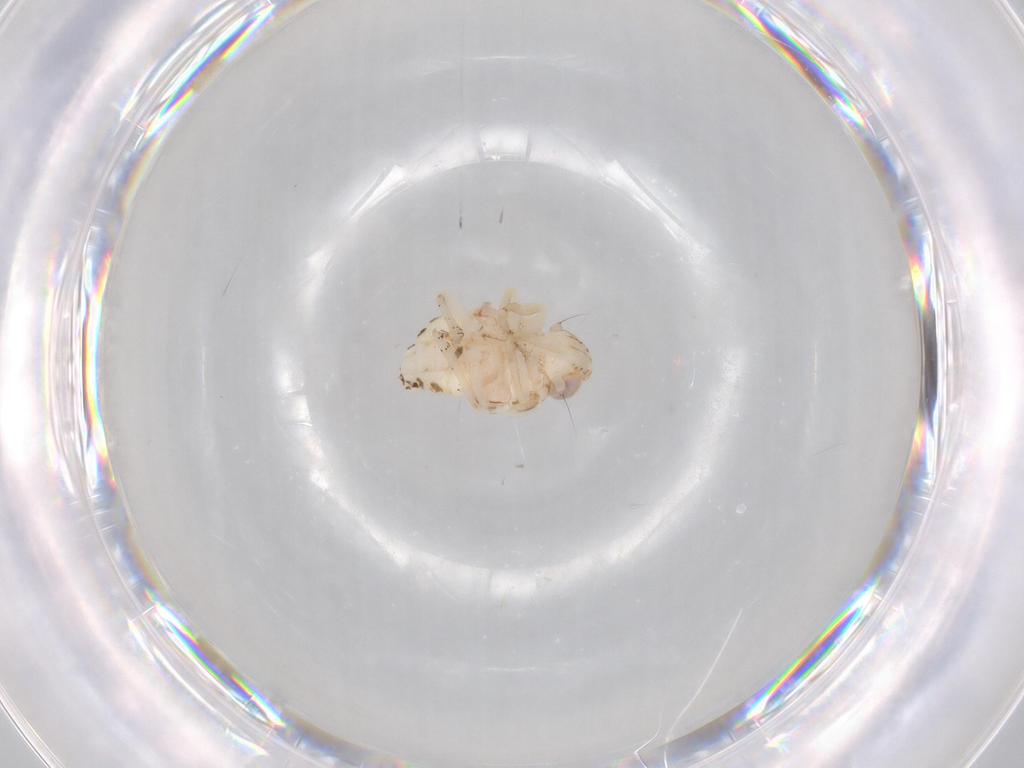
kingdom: Animalia
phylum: Arthropoda
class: Insecta
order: Hemiptera
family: Nogodinidae
